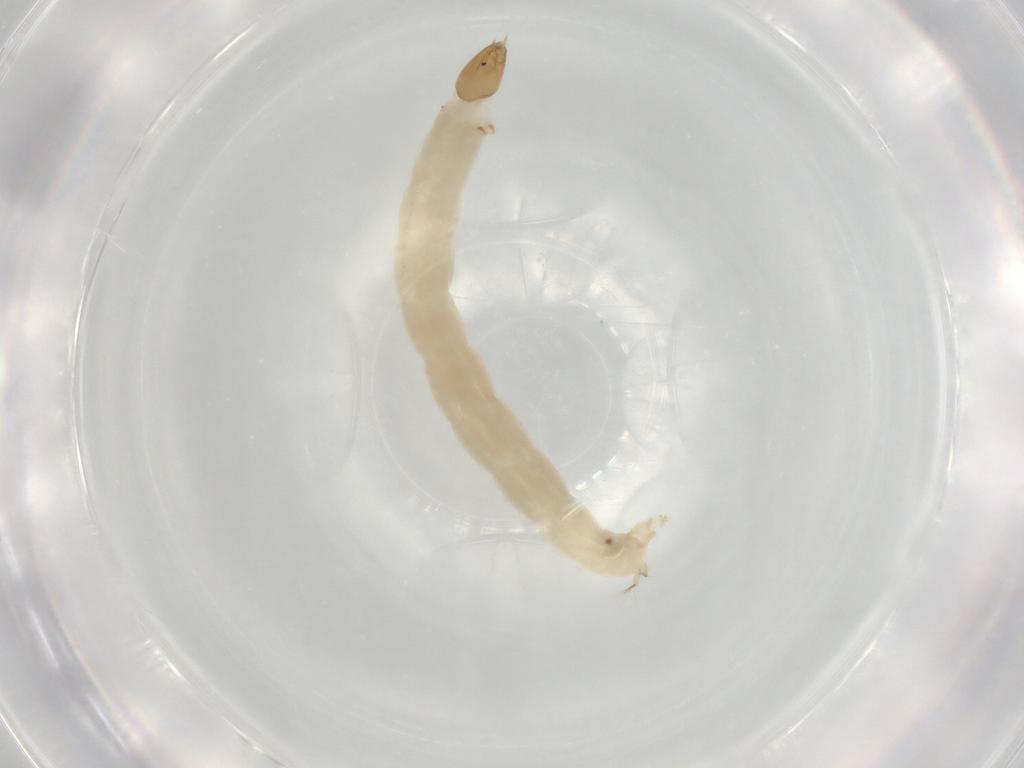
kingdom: Animalia
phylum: Arthropoda
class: Insecta
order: Diptera
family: Chironomidae
